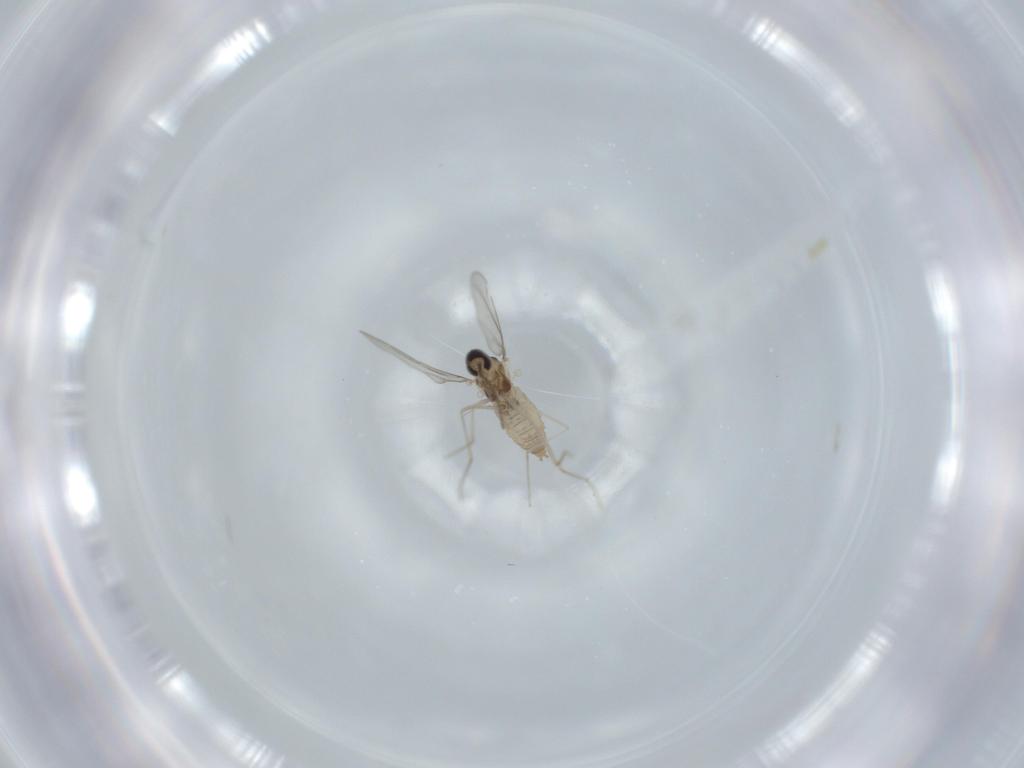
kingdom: Animalia
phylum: Arthropoda
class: Insecta
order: Diptera
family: Cecidomyiidae
